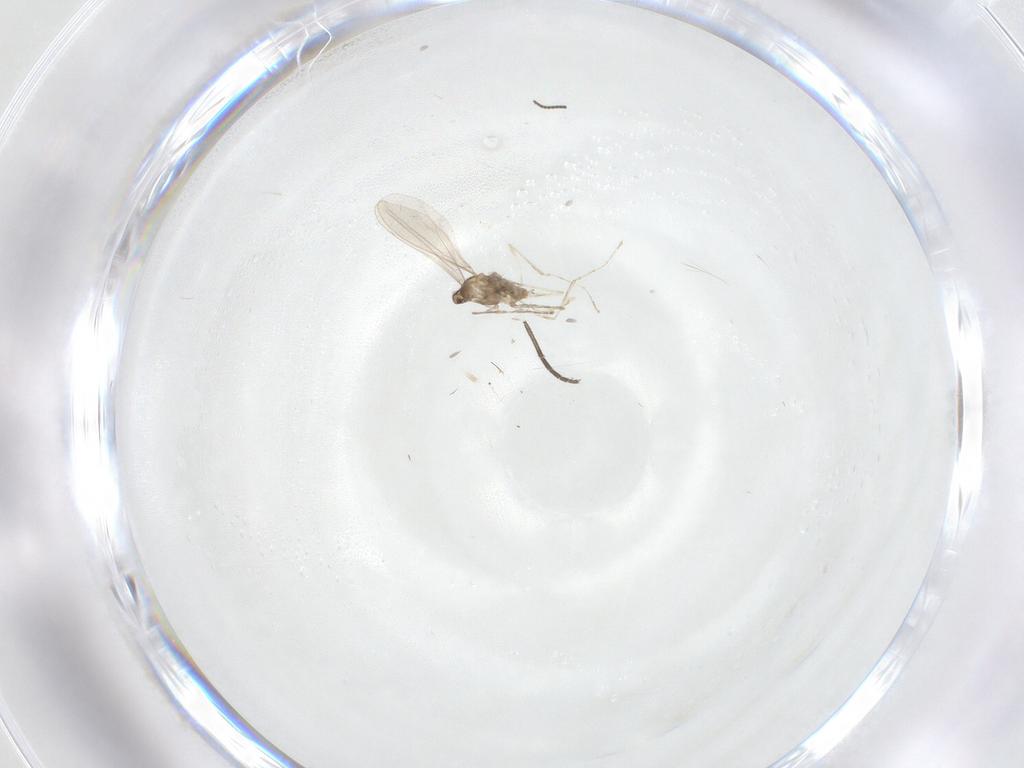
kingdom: Animalia
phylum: Arthropoda
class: Insecta
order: Diptera
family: Cecidomyiidae
